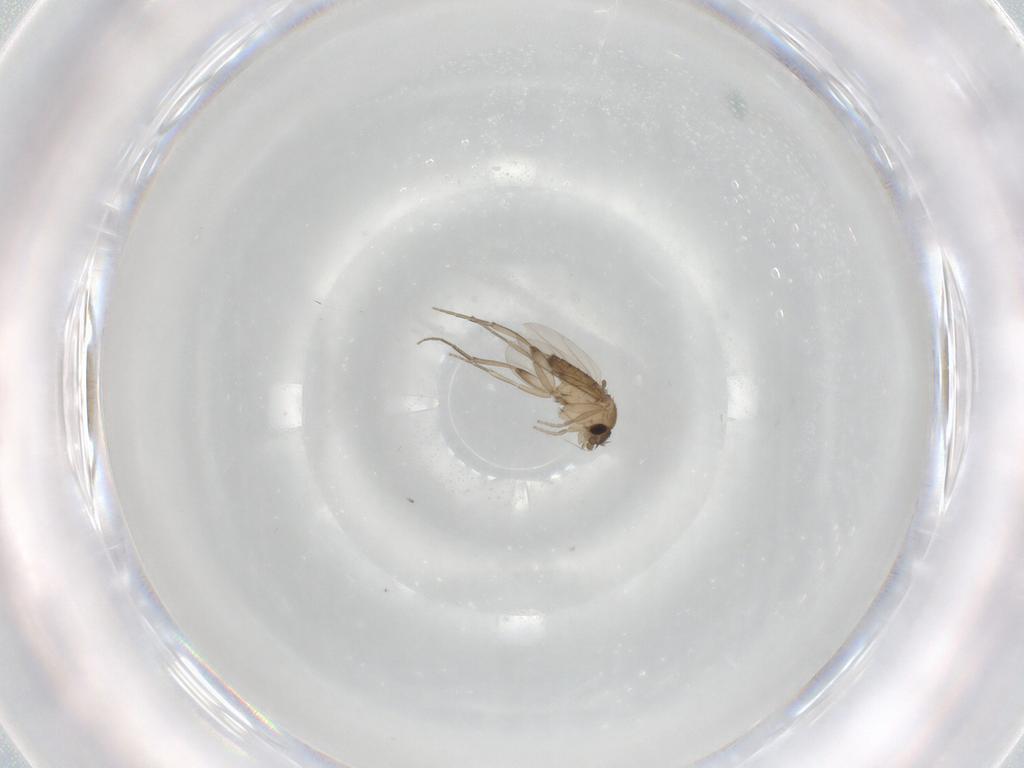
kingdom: Animalia
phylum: Arthropoda
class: Insecta
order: Diptera
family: Phoridae
